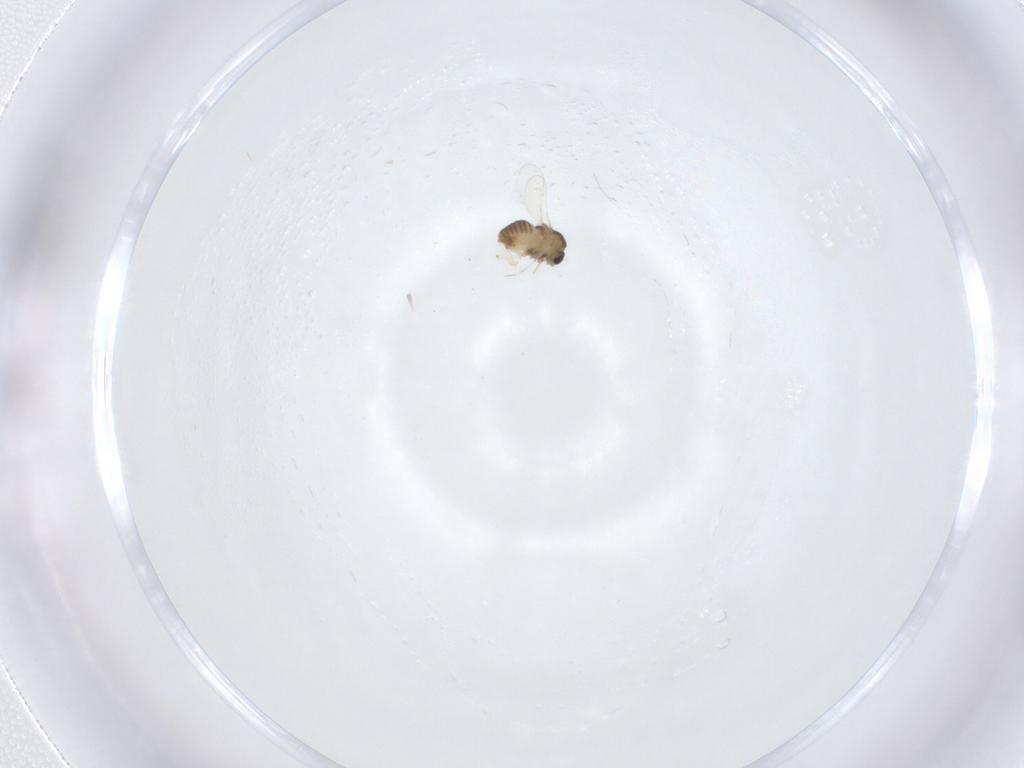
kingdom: Animalia
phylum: Arthropoda
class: Insecta
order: Diptera
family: Chironomidae
